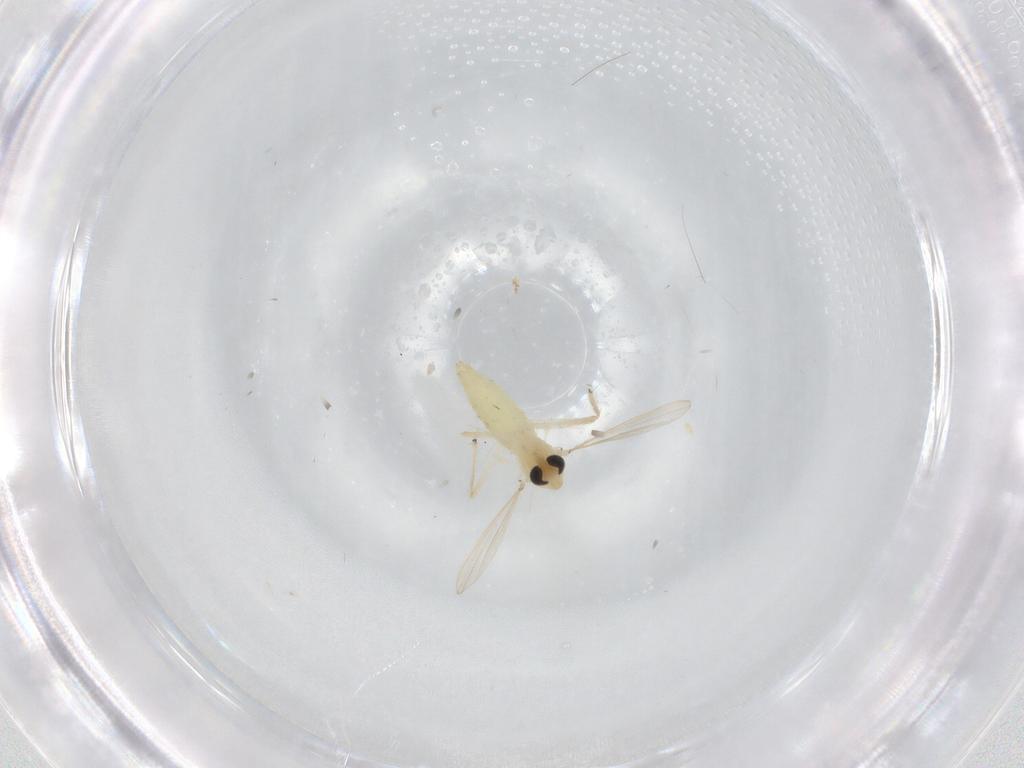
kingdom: Animalia
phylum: Arthropoda
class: Insecta
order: Diptera
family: Chironomidae
